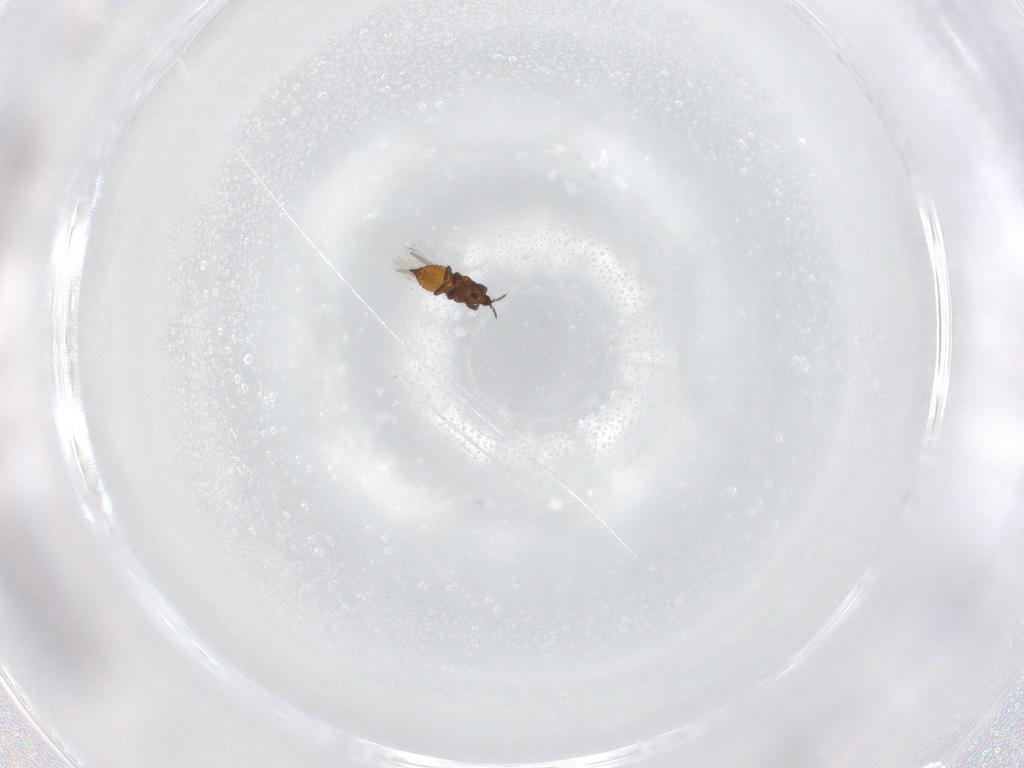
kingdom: Animalia
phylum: Arthropoda
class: Insecta
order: Thysanoptera
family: Thripidae
